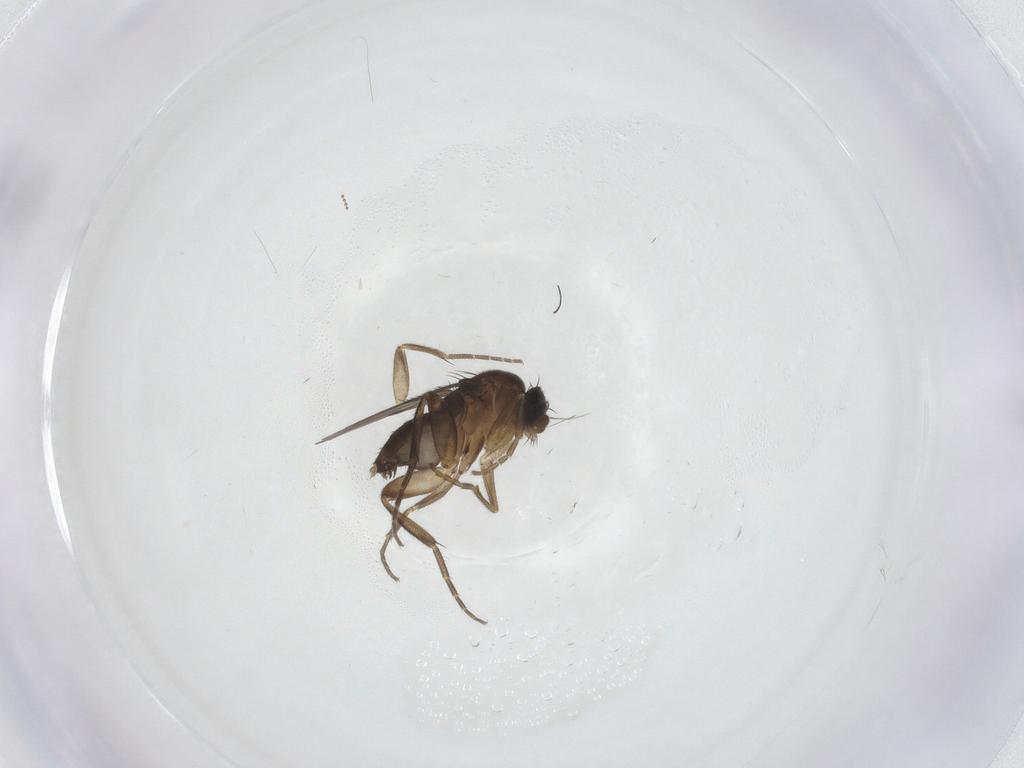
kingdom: Animalia
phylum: Arthropoda
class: Insecta
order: Diptera
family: Phoridae
